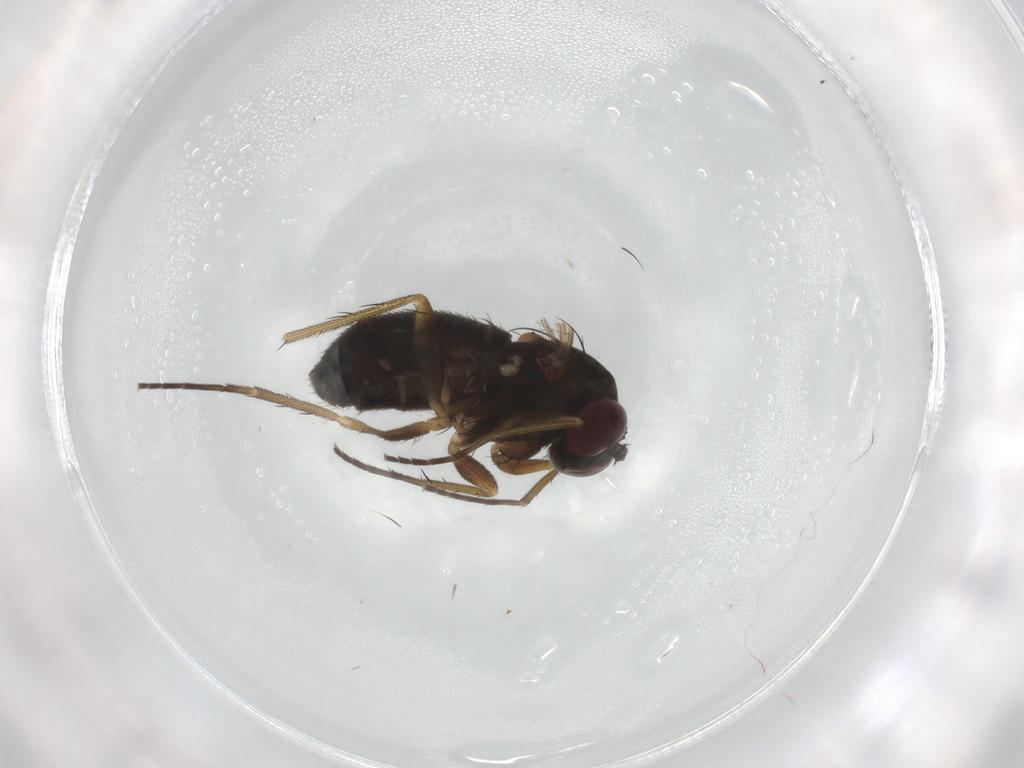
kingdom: Animalia
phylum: Arthropoda
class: Insecta
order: Diptera
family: Dolichopodidae
